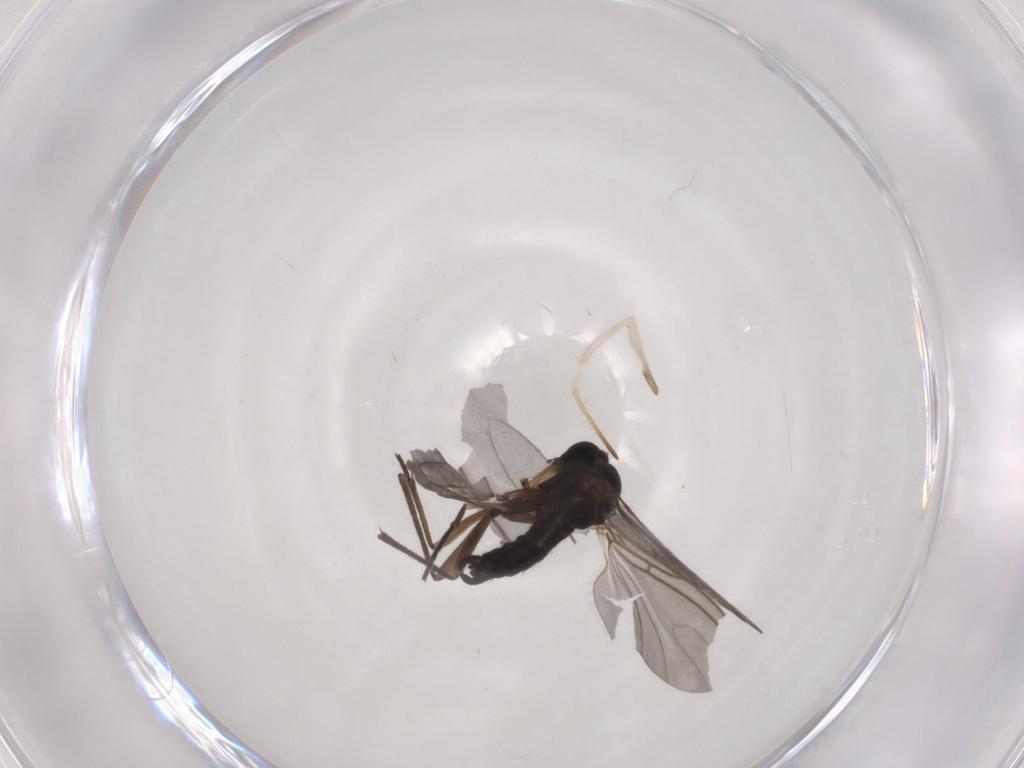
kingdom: Animalia
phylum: Arthropoda
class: Insecta
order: Diptera
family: Sciaridae
